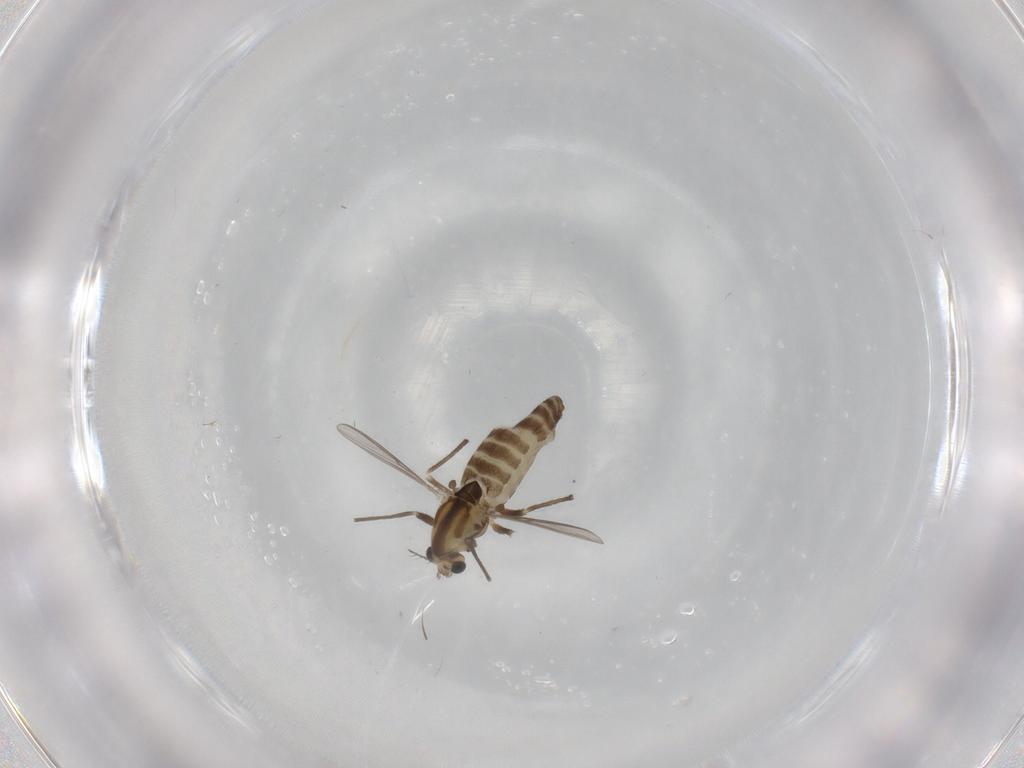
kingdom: Animalia
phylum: Arthropoda
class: Insecta
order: Diptera
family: Chironomidae
